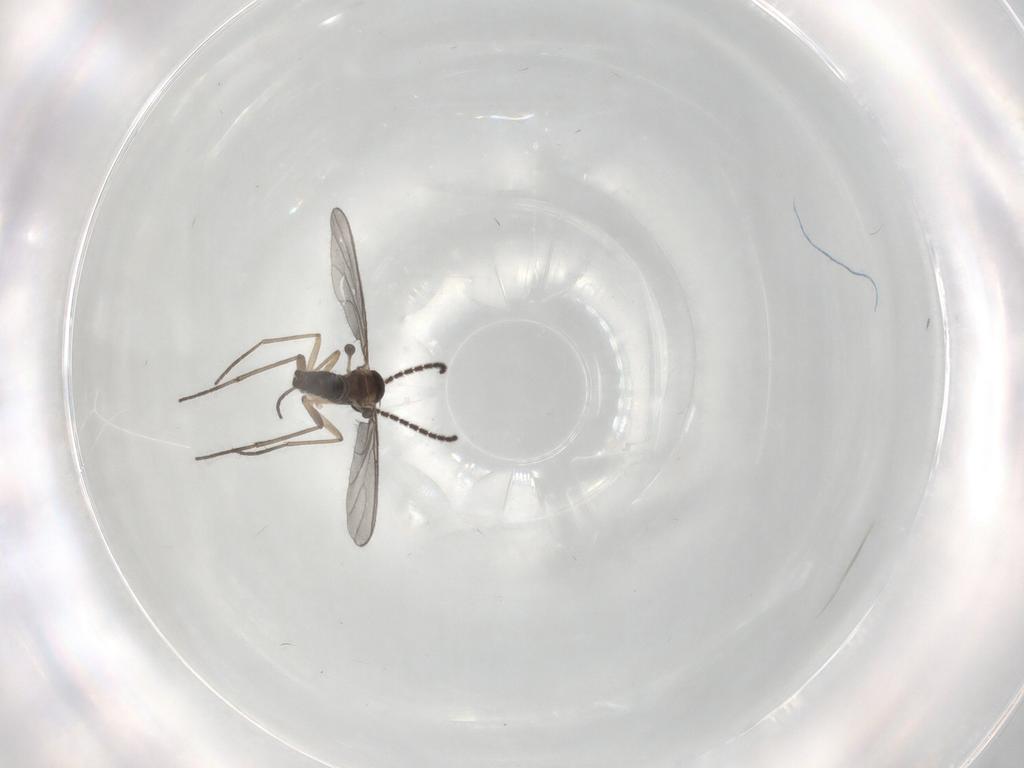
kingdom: Animalia
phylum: Arthropoda
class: Insecta
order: Diptera
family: Sciaridae
